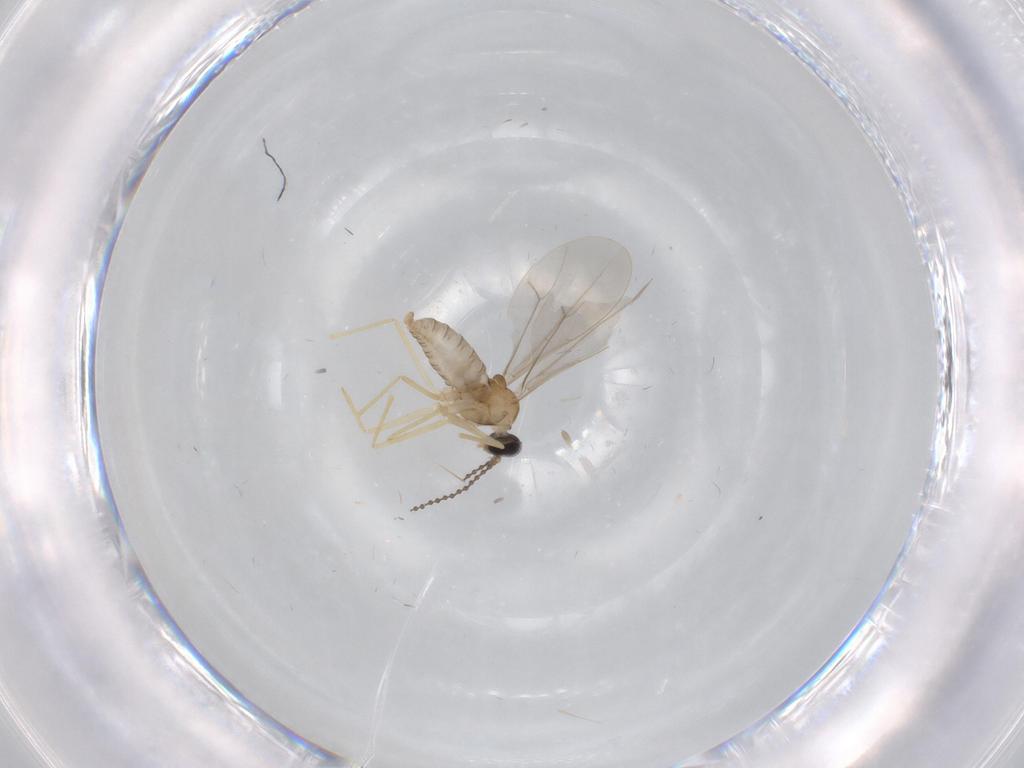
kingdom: Animalia
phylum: Arthropoda
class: Insecta
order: Diptera
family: Cecidomyiidae
